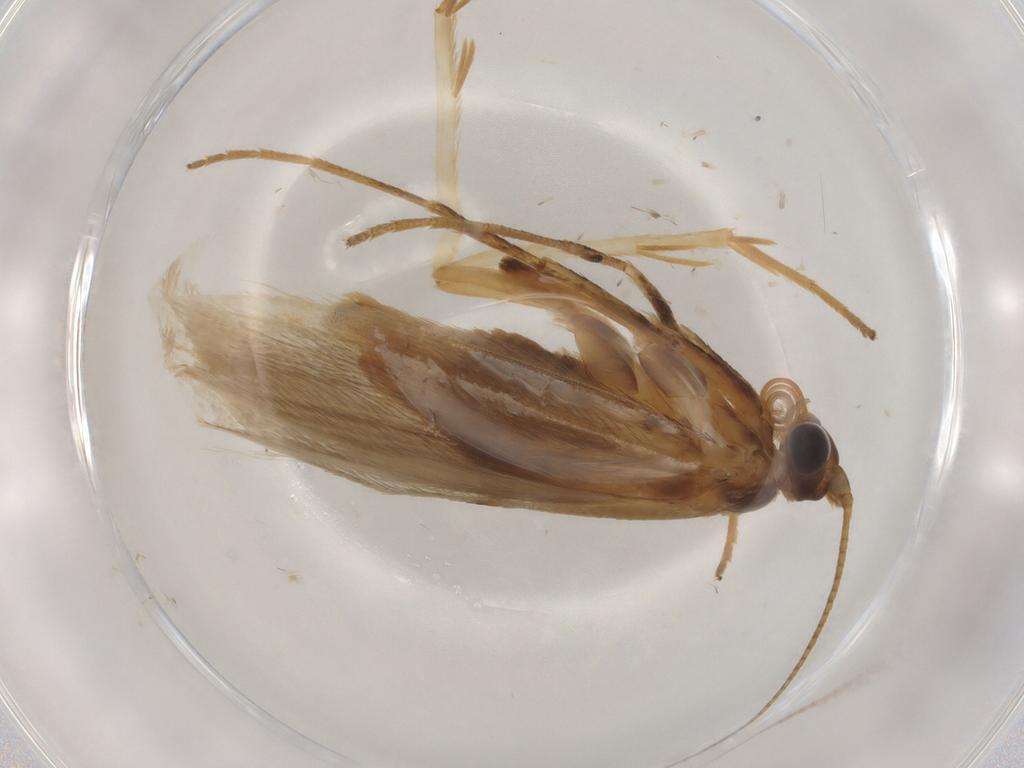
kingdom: Animalia
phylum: Arthropoda
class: Insecta
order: Lepidoptera
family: Adelidae
